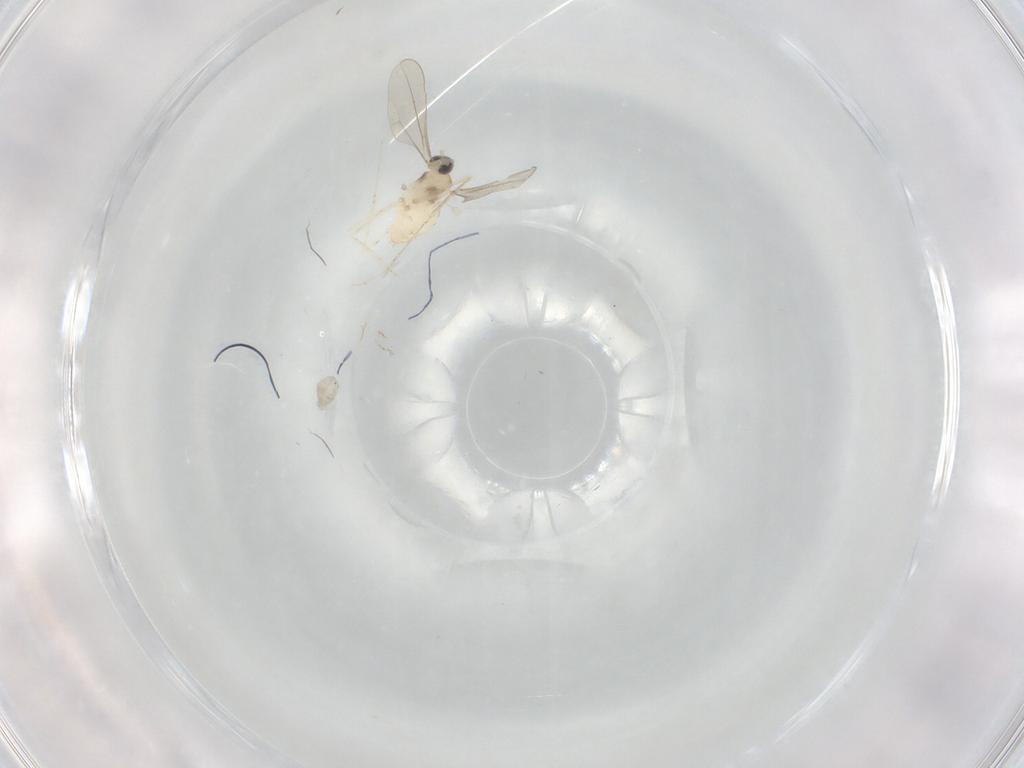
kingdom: Animalia
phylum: Arthropoda
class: Insecta
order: Diptera
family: Cecidomyiidae
